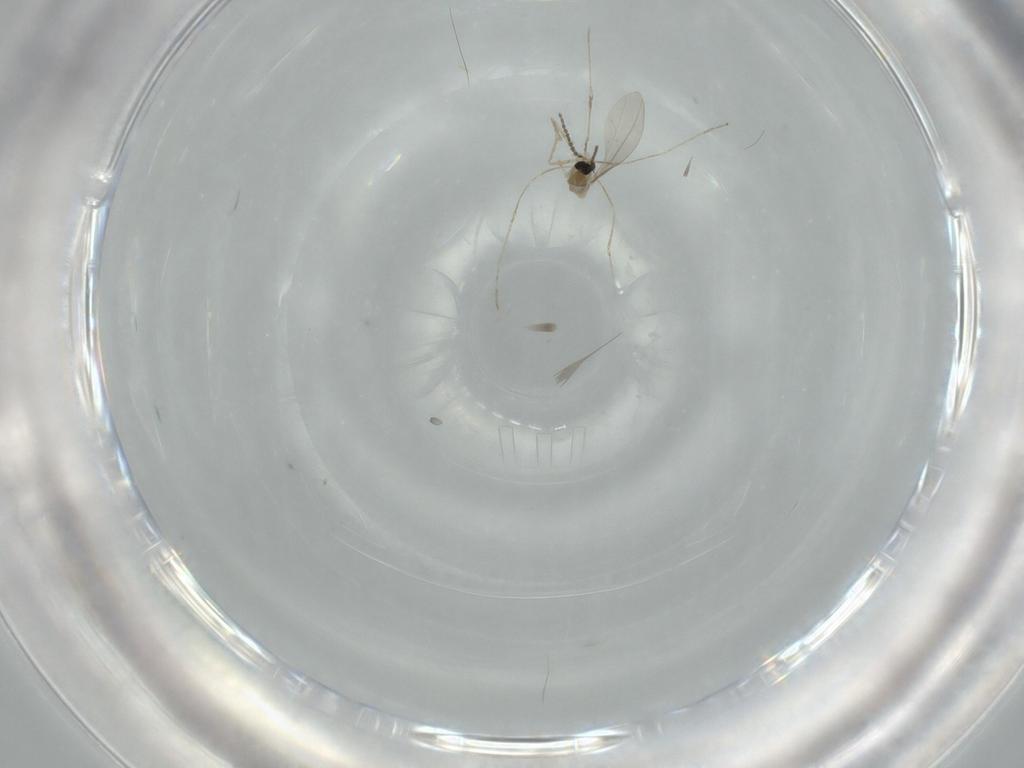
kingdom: Animalia
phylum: Arthropoda
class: Insecta
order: Diptera
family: Cecidomyiidae
